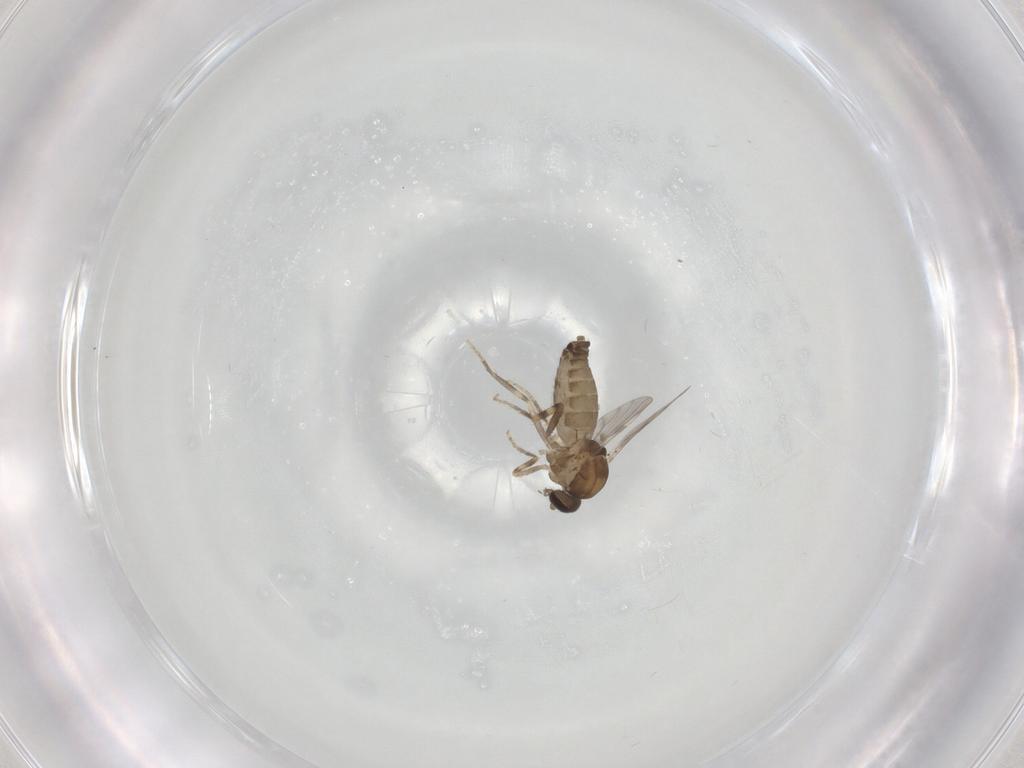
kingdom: Animalia
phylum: Arthropoda
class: Insecta
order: Diptera
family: Ceratopogonidae
